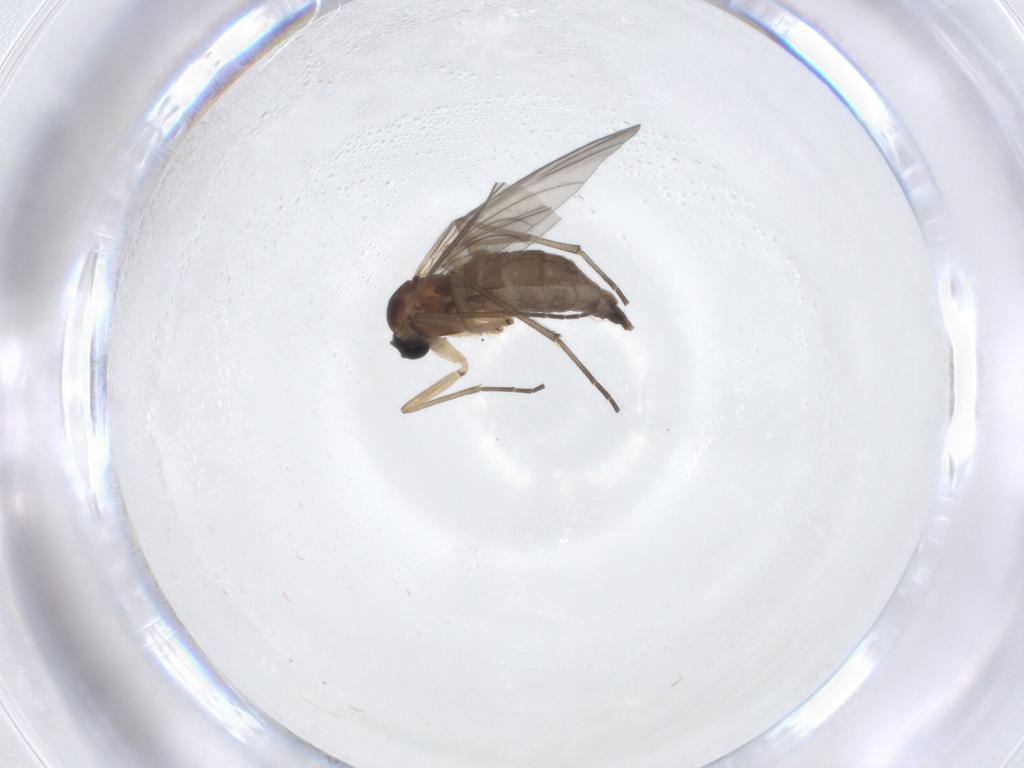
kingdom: Animalia
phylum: Arthropoda
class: Insecta
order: Diptera
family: Sciaridae
